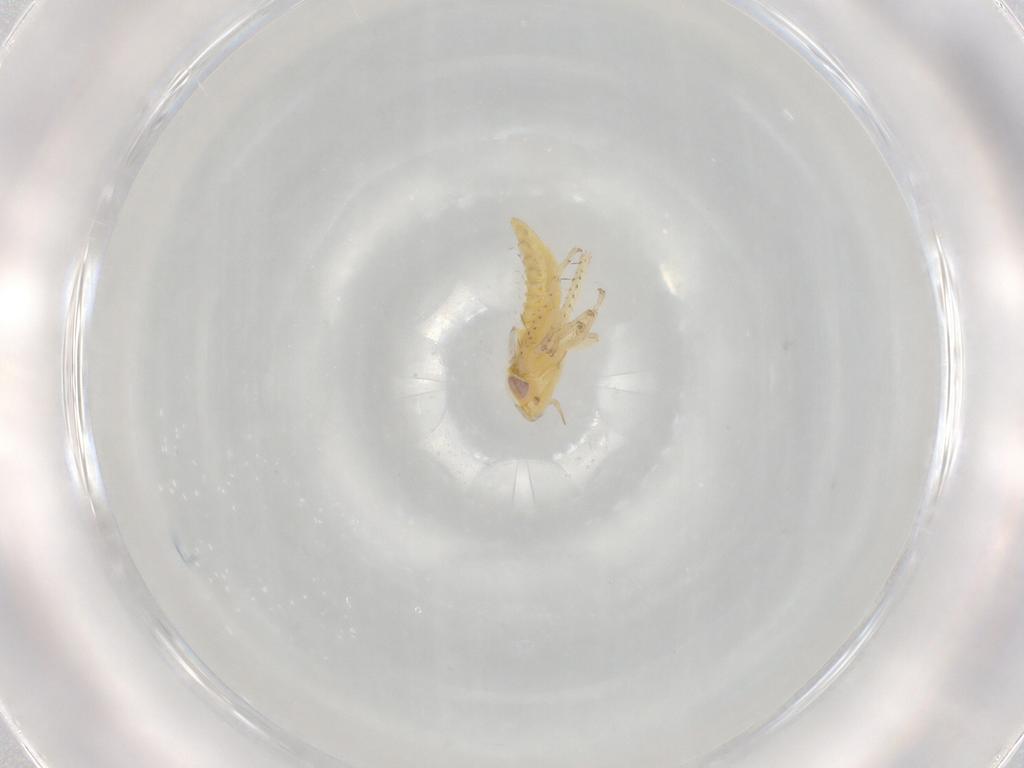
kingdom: Animalia
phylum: Arthropoda
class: Insecta
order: Hemiptera
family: Cicadellidae
